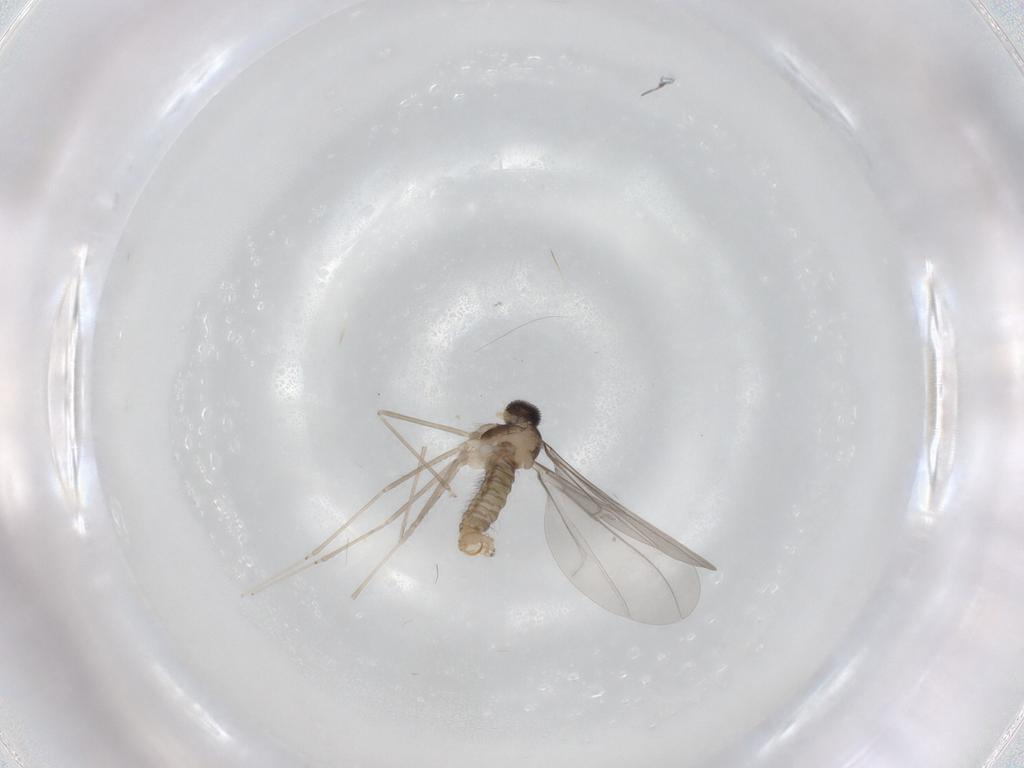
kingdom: Animalia
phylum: Arthropoda
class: Insecta
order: Diptera
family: Cecidomyiidae
